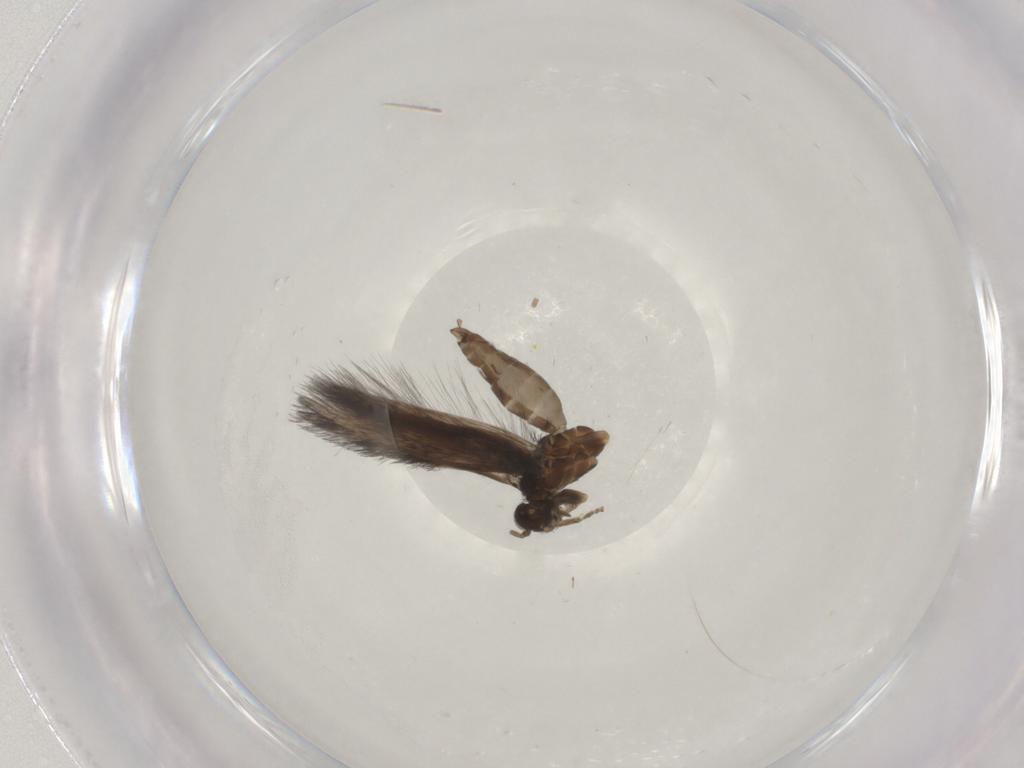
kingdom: Animalia
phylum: Arthropoda
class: Insecta
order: Trichoptera
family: Hydroptilidae
